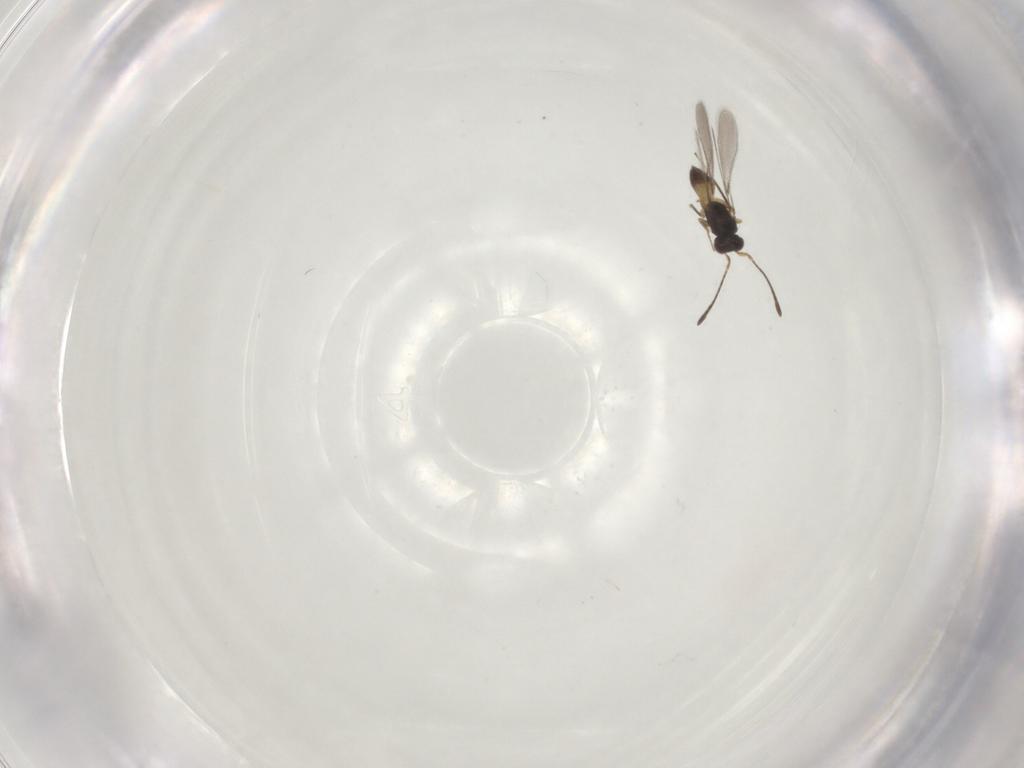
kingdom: Animalia
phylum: Arthropoda
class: Insecta
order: Hymenoptera
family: Mymaridae
